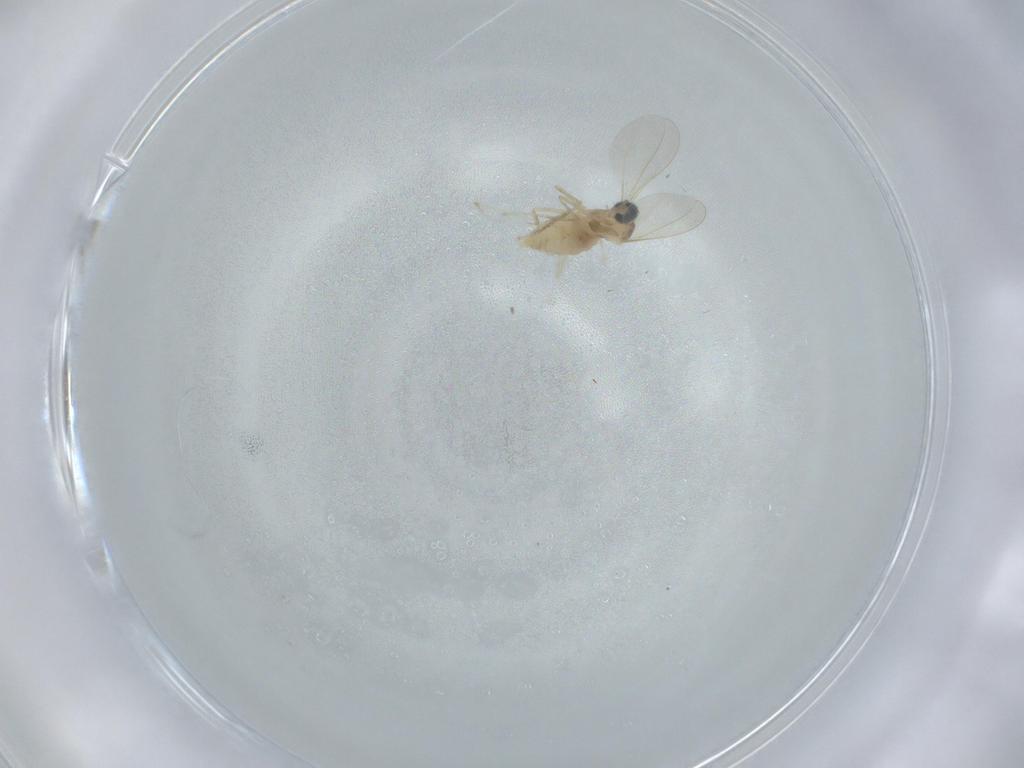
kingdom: Animalia
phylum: Arthropoda
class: Insecta
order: Diptera
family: Cecidomyiidae
